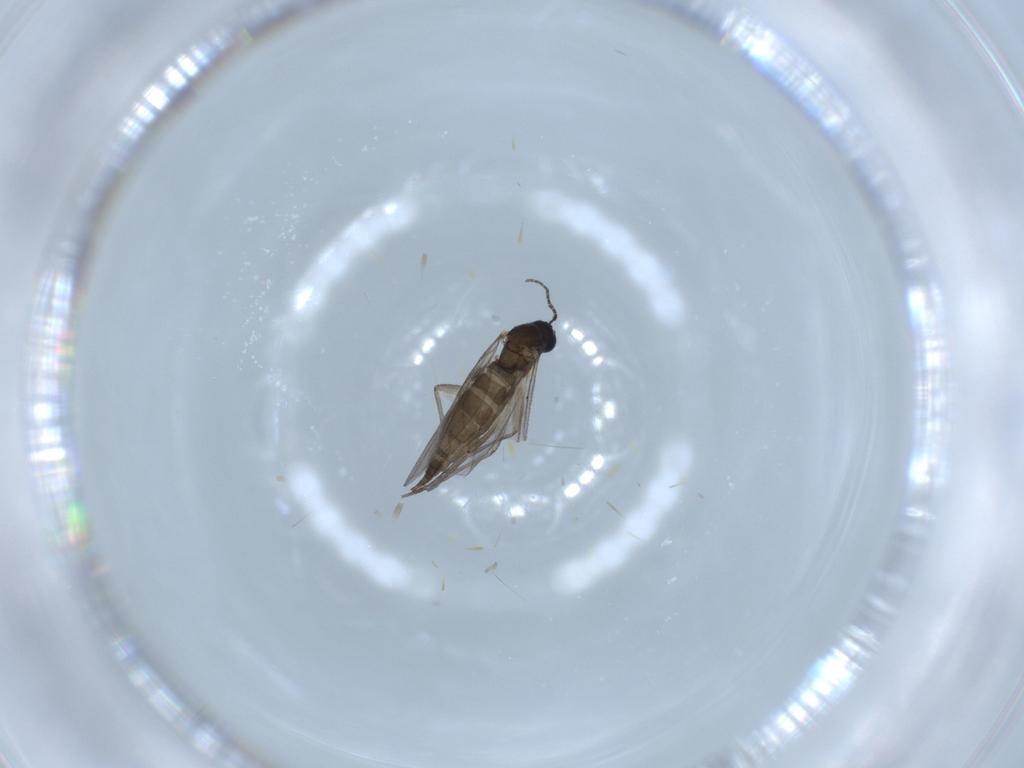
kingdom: Animalia
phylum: Arthropoda
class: Insecta
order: Diptera
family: Sciaridae
